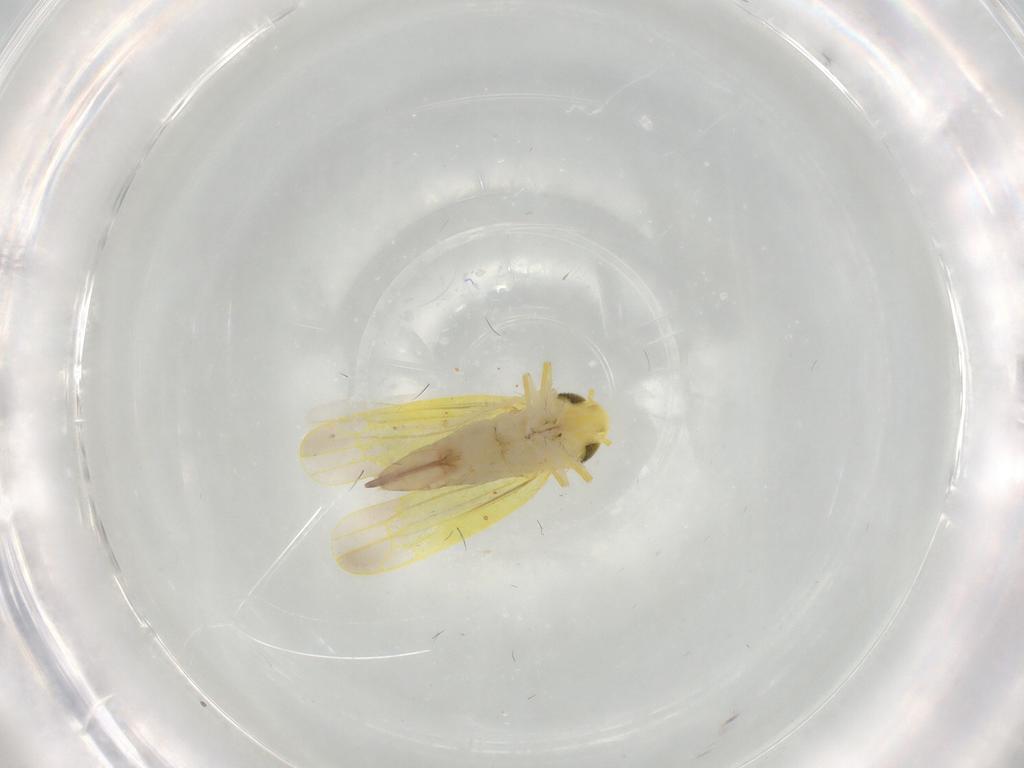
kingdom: Animalia
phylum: Arthropoda
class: Insecta
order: Hemiptera
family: Cicadellidae
